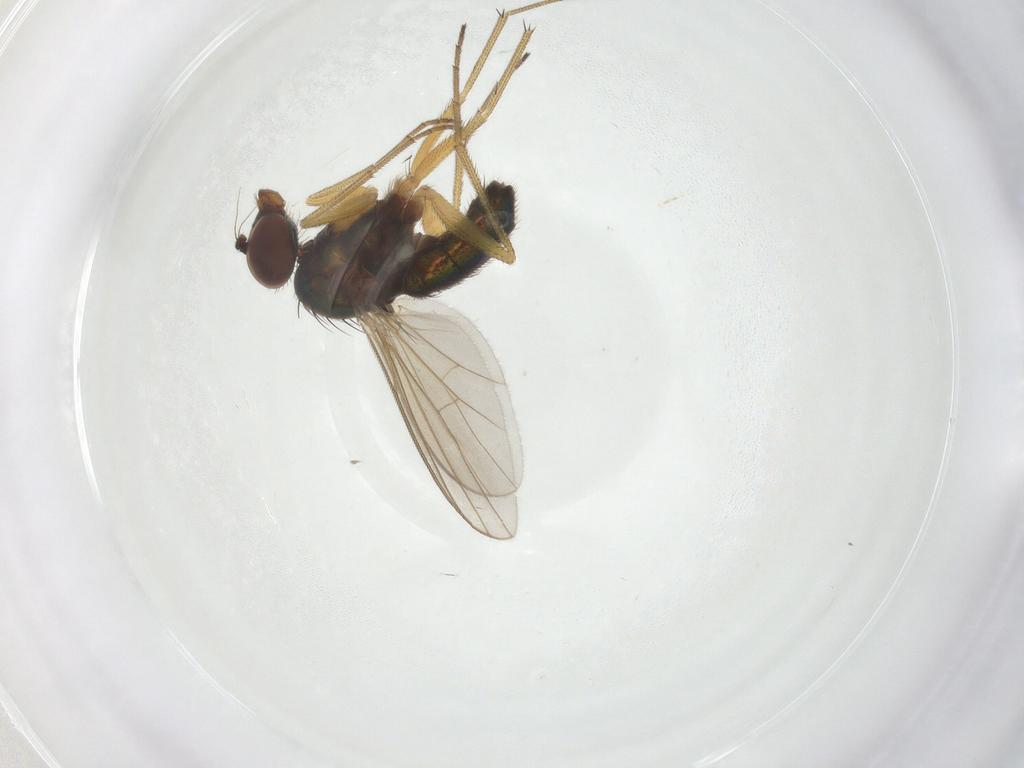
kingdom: Animalia
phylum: Arthropoda
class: Insecta
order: Diptera
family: Dolichopodidae
